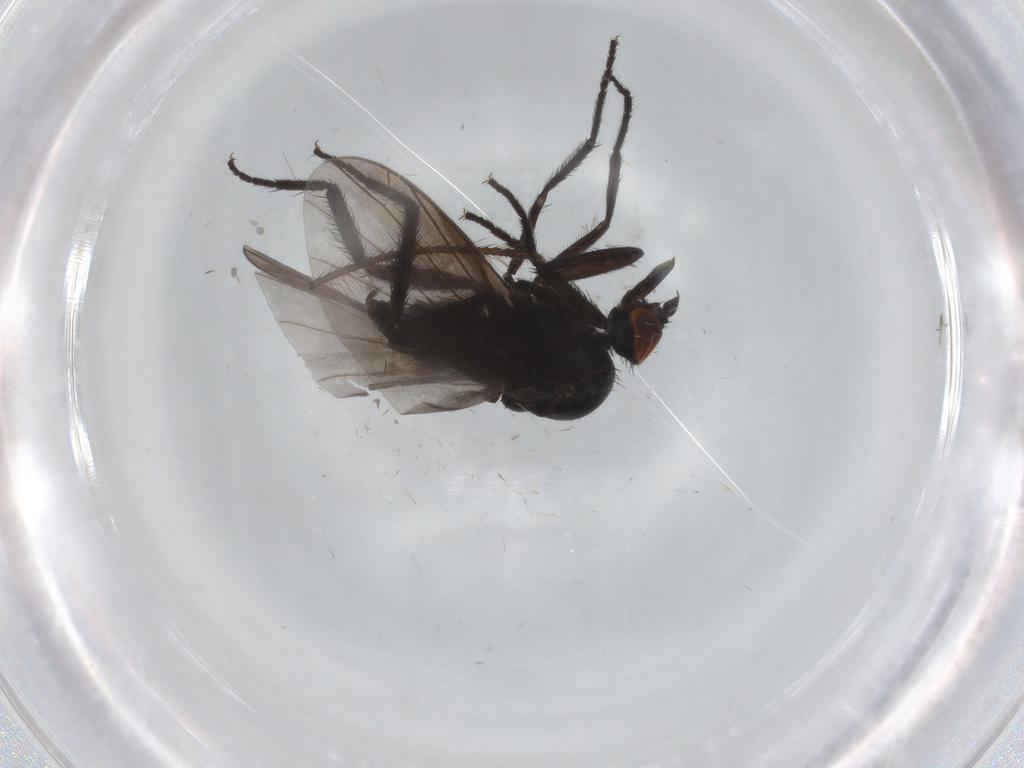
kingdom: Animalia
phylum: Arthropoda
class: Insecta
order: Diptera
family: Empididae
